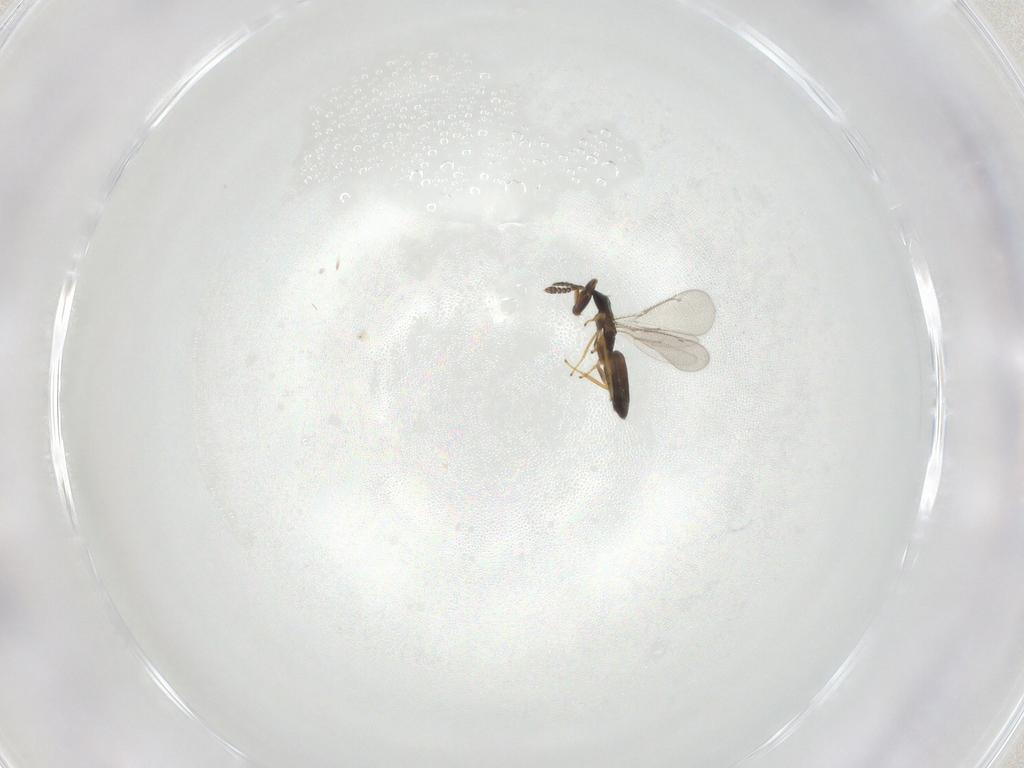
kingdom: Animalia
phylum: Arthropoda
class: Insecta
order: Hymenoptera
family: Eulophidae
